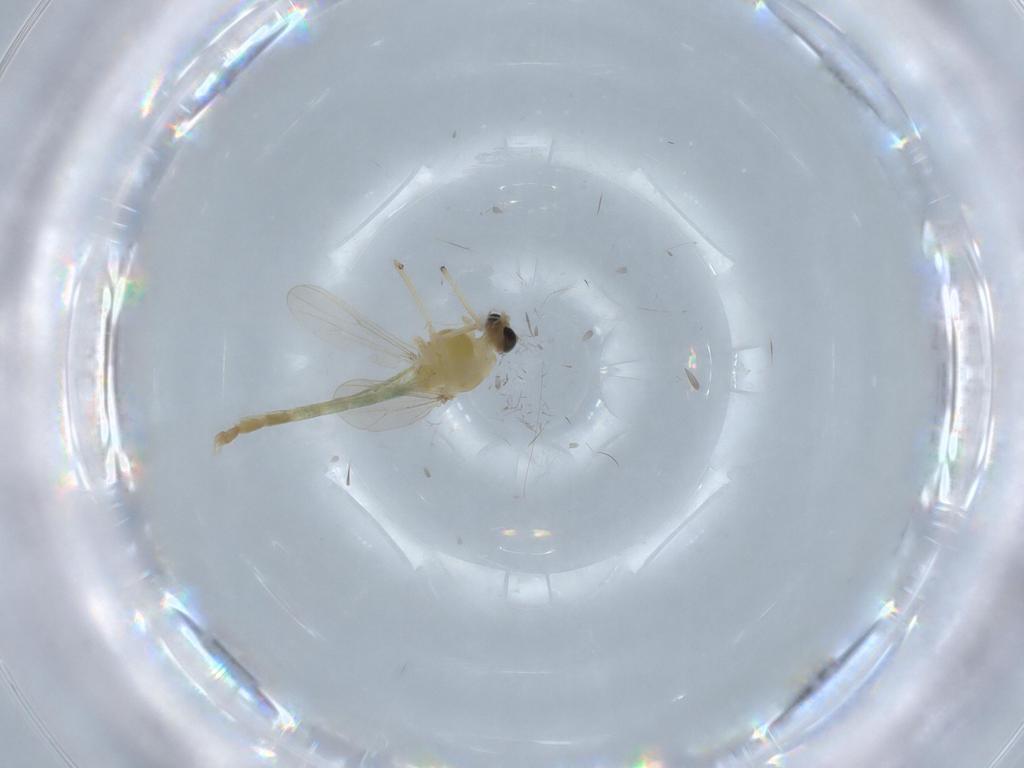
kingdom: Animalia
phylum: Arthropoda
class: Insecta
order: Diptera
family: Chironomidae
